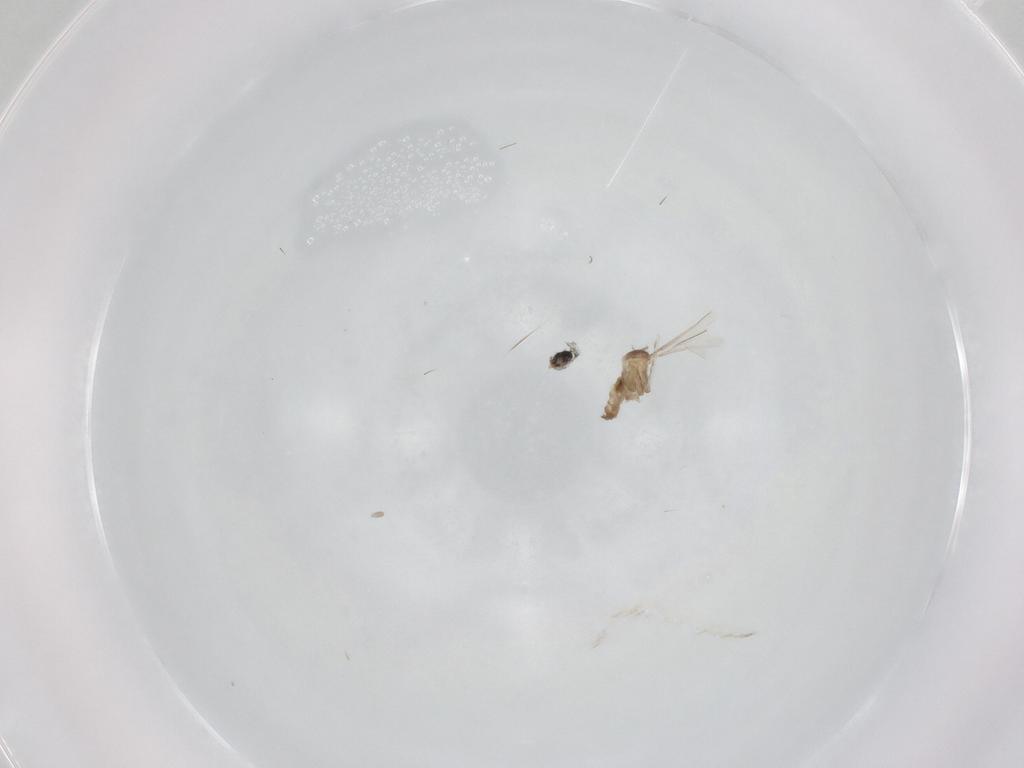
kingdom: Animalia
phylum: Arthropoda
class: Insecta
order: Diptera
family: Cecidomyiidae
